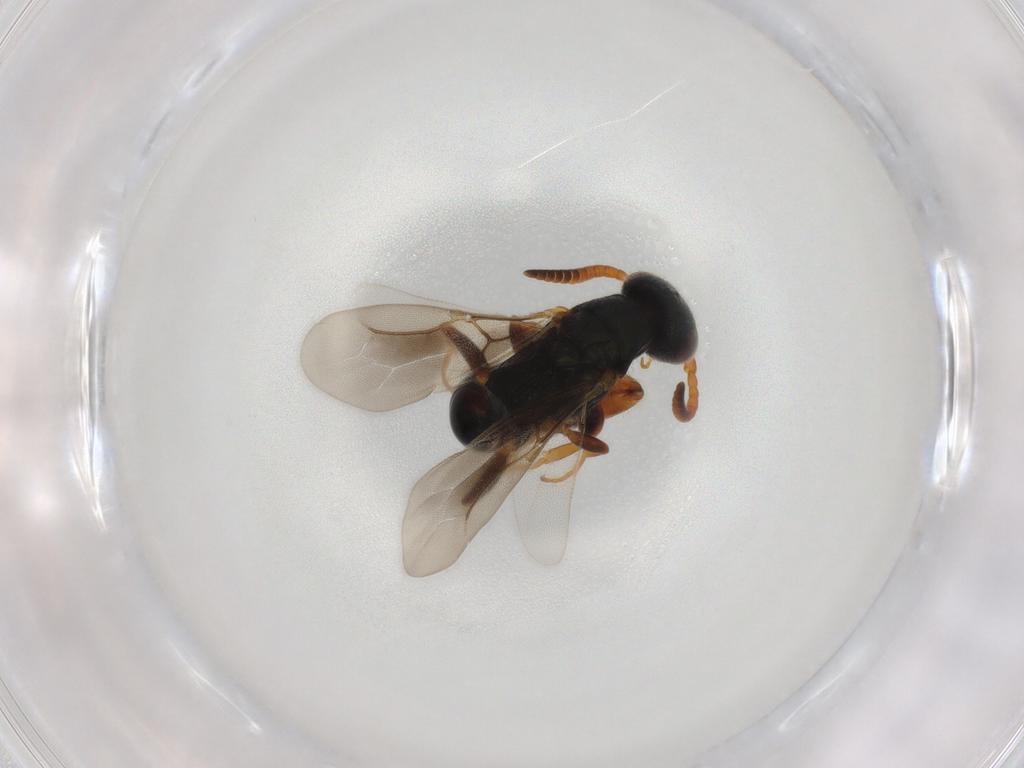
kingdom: Animalia
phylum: Arthropoda
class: Insecta
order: Hymenoptera
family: Bethylidae
